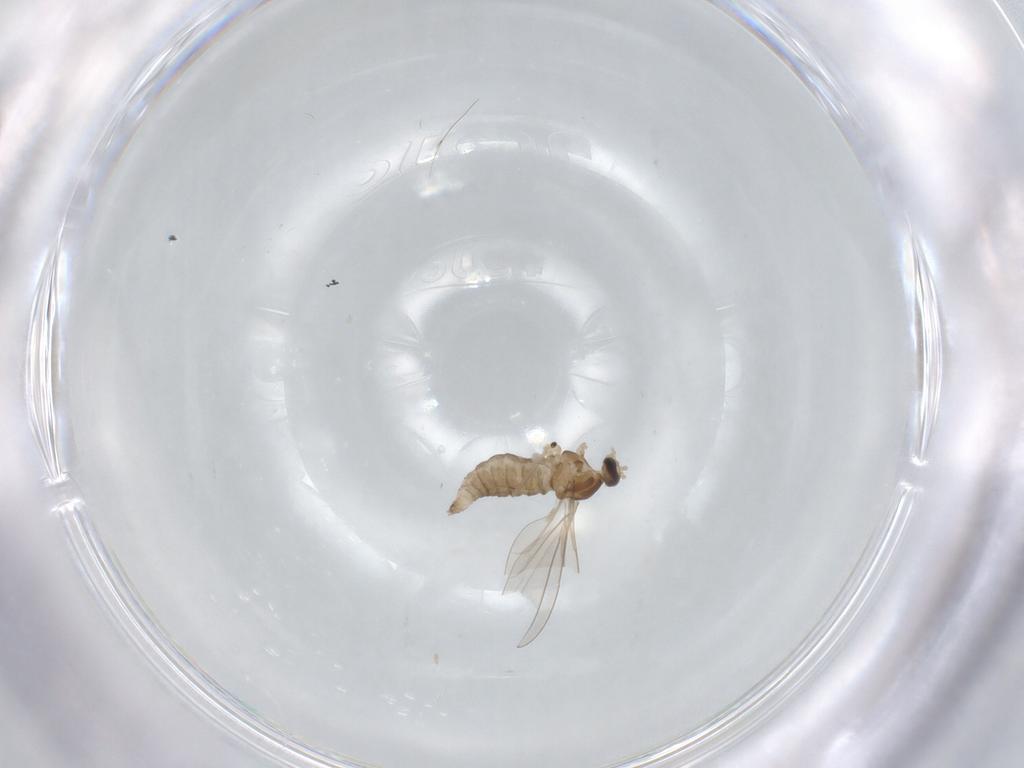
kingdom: Animalia
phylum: Arthropoda
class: Insecta
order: Diptera
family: Cecidomyiidae
